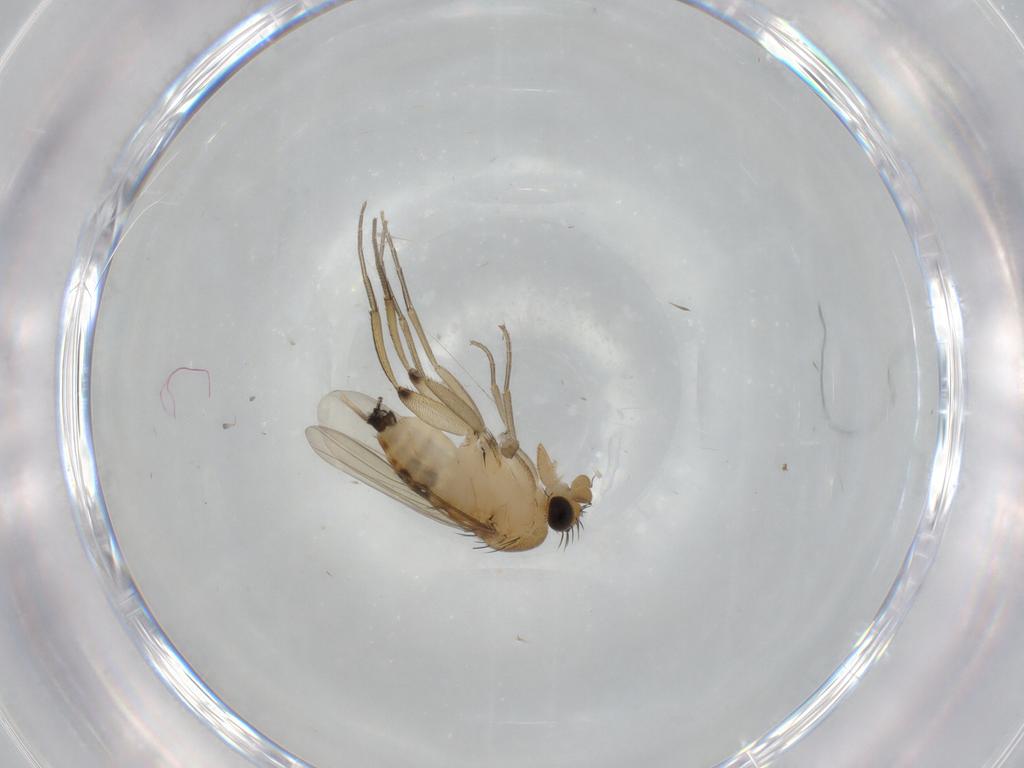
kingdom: Animalia
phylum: Arthropoda
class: Insecta
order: Diptera
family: Phoridae
